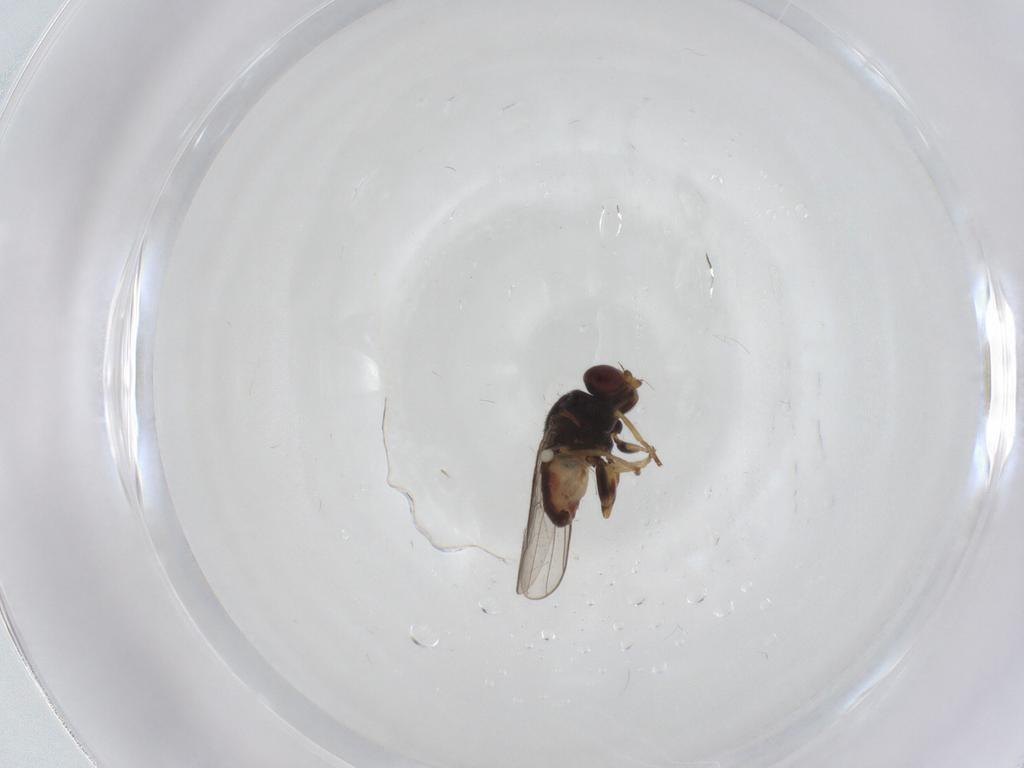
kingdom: Animalia
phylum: Arthropoda
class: Insecta
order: Diptera
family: Chloropidae
